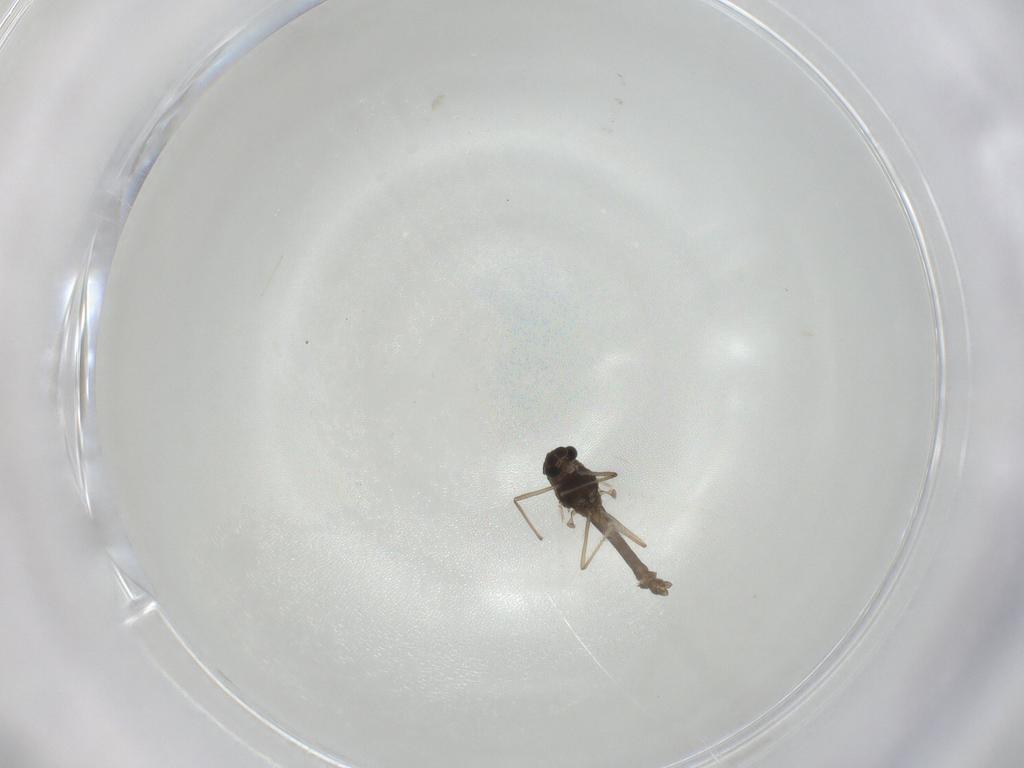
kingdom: Animalia
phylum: Arthropoda
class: Insecta
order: Diptera
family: Chironomidae
